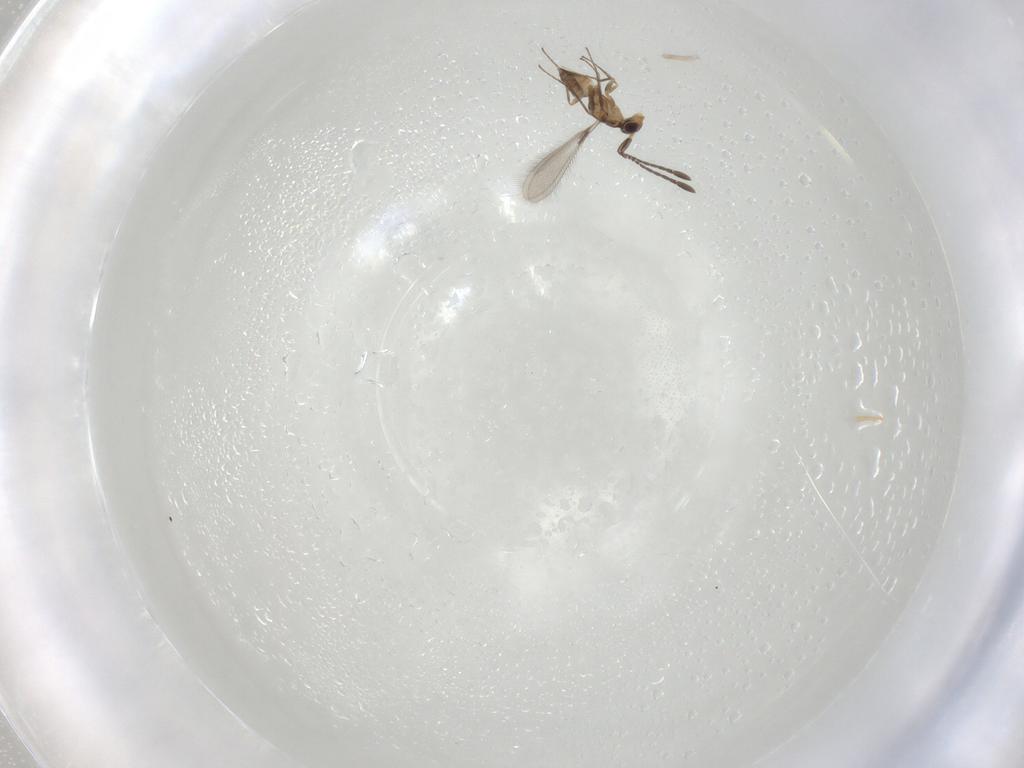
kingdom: Animalia
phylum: Arthropoda
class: Insecta
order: Hymenoptera
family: Mymaridae
